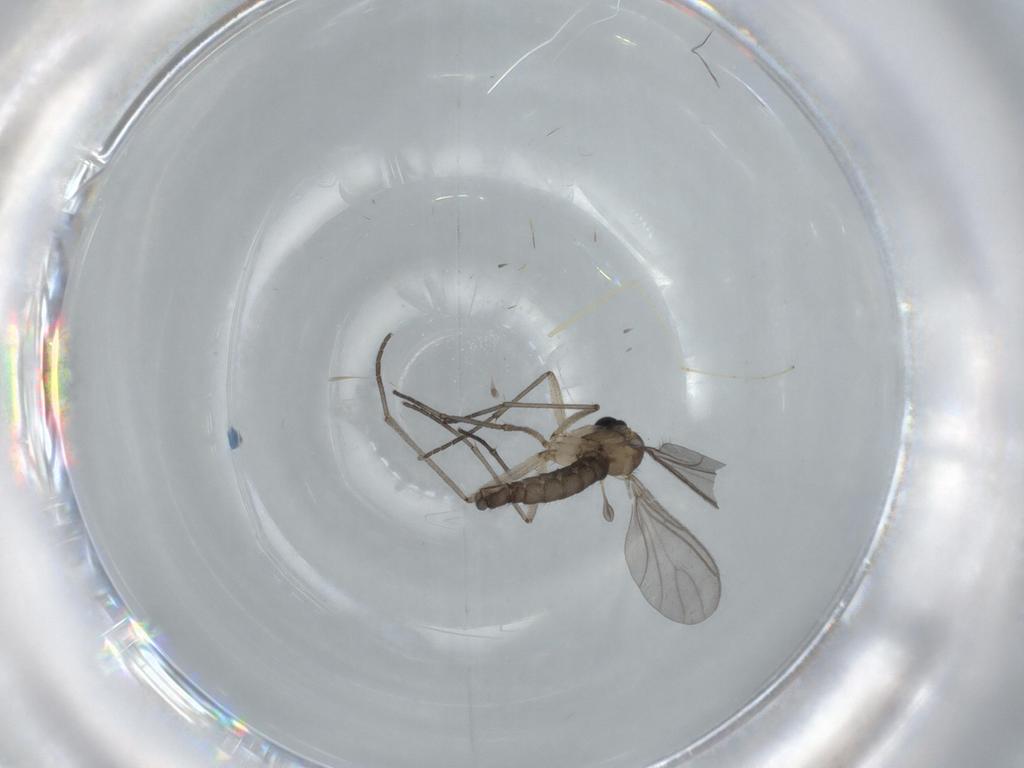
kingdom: Animalia
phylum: Arthropoda
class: Insecta
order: Diptera
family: Cecidomyiidae
